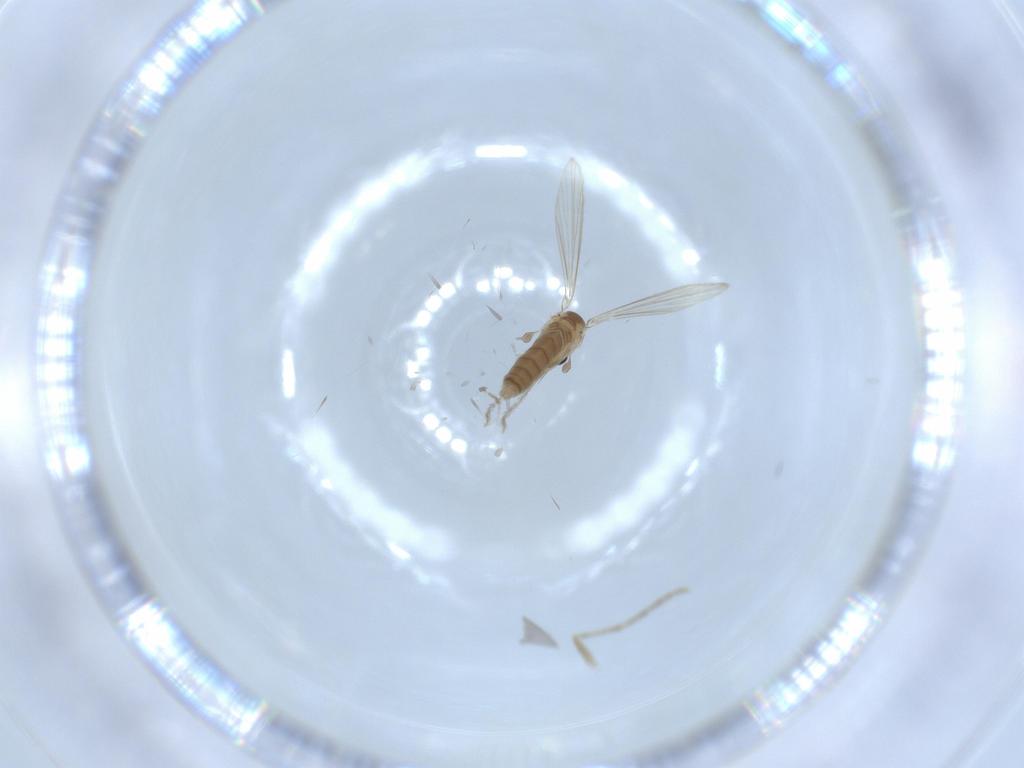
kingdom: Animalia
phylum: Arthropoda
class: Insecta
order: Diptera
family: Psychodidae
